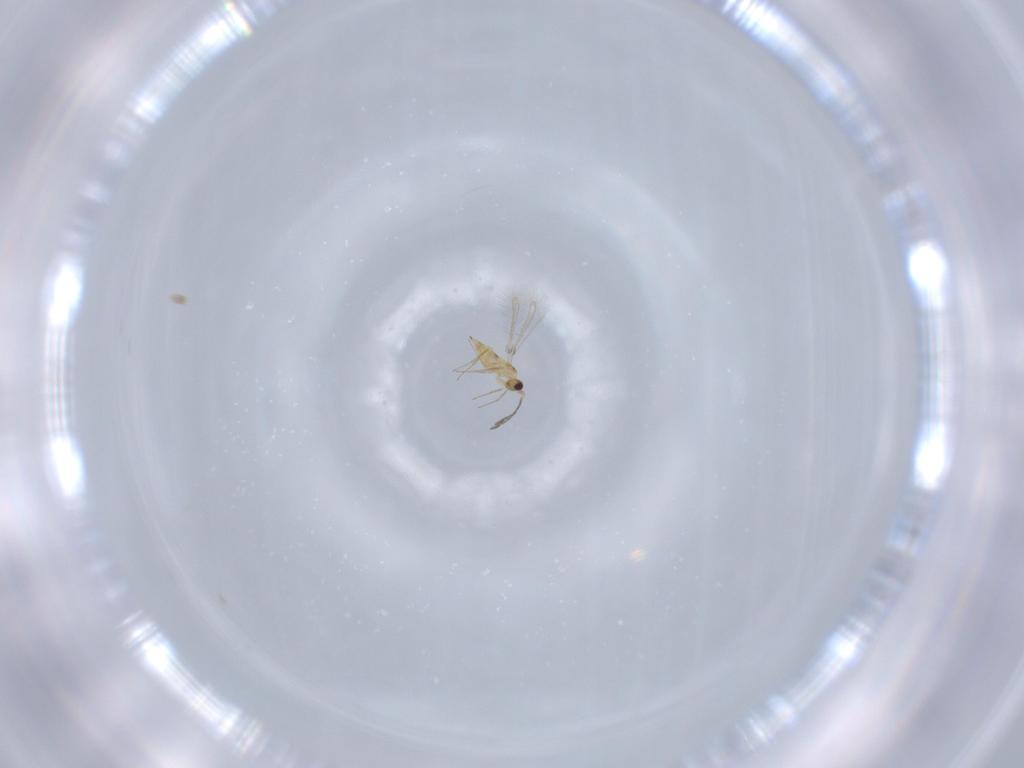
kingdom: Animalia
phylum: Arthropoda
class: Insecta
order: Hymenoptera
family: Mymaridae
